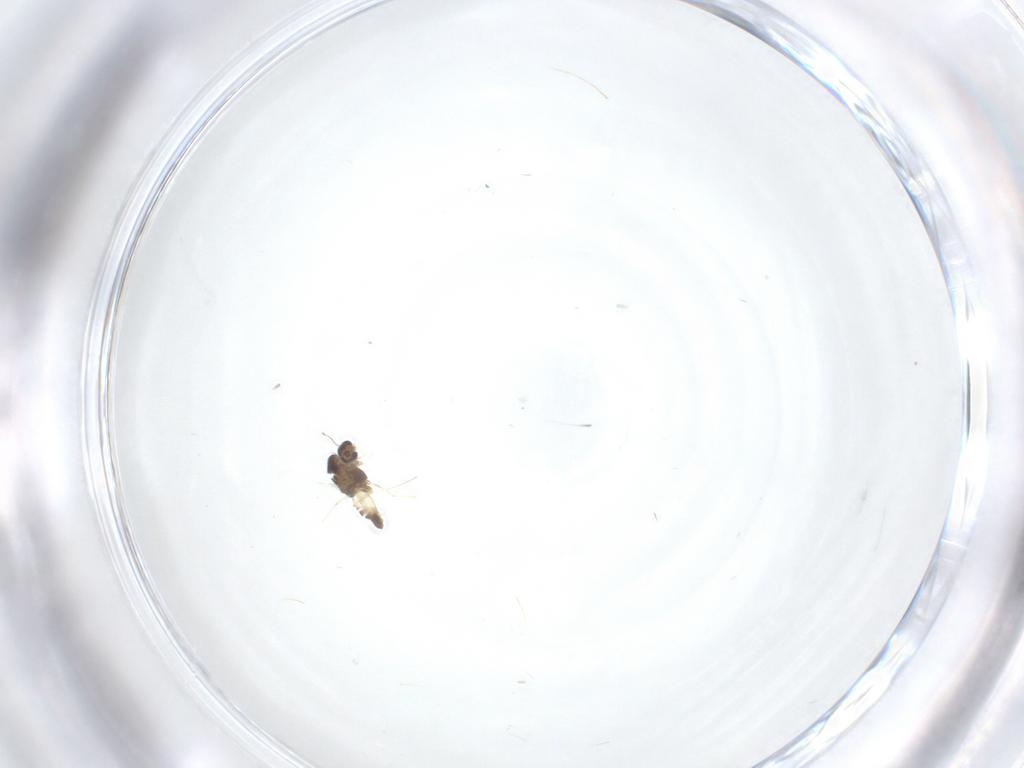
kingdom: Animalia
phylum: Arthropoda
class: Insecta
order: Diptera
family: Cecidomyiidae
